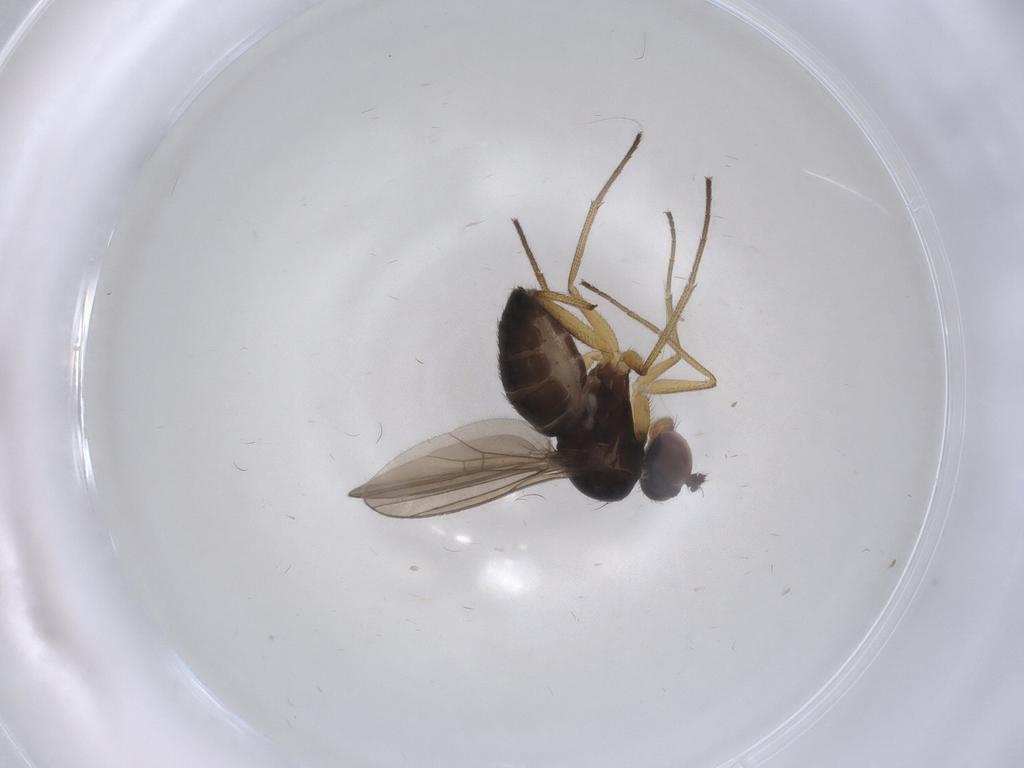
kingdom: Animalia
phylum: Arthropoda
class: Insecta
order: Diptera
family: Dolichopodidae
